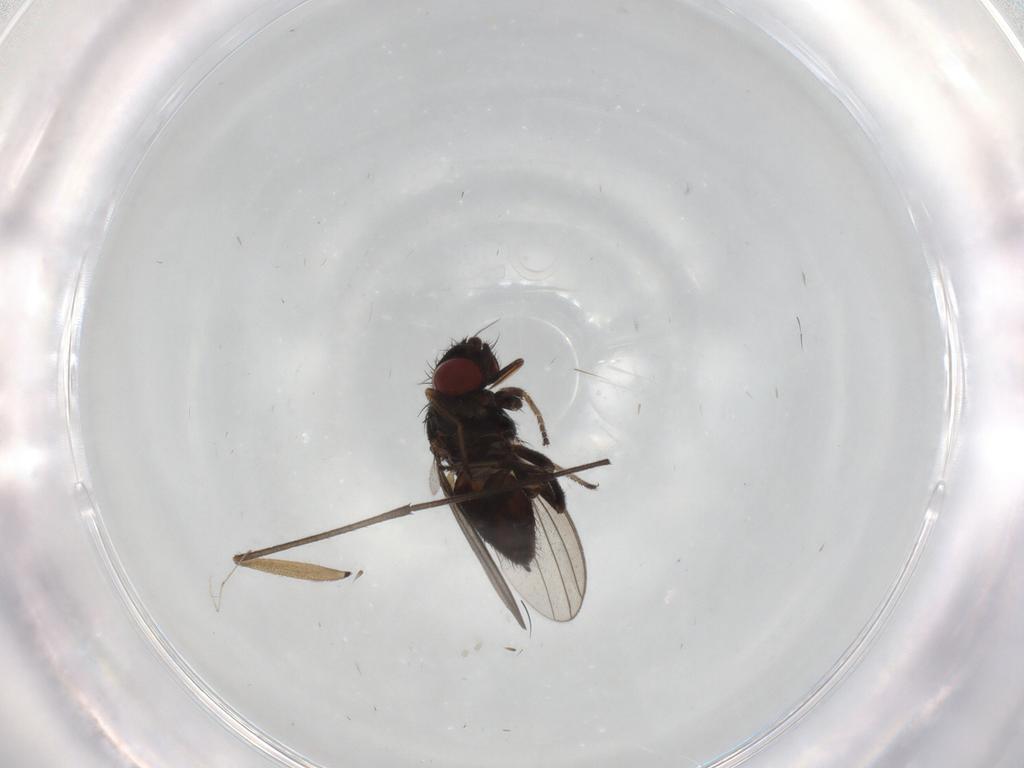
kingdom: Animalia
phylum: Arthropoda
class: Insecta
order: Diptera
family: Milichiidae
